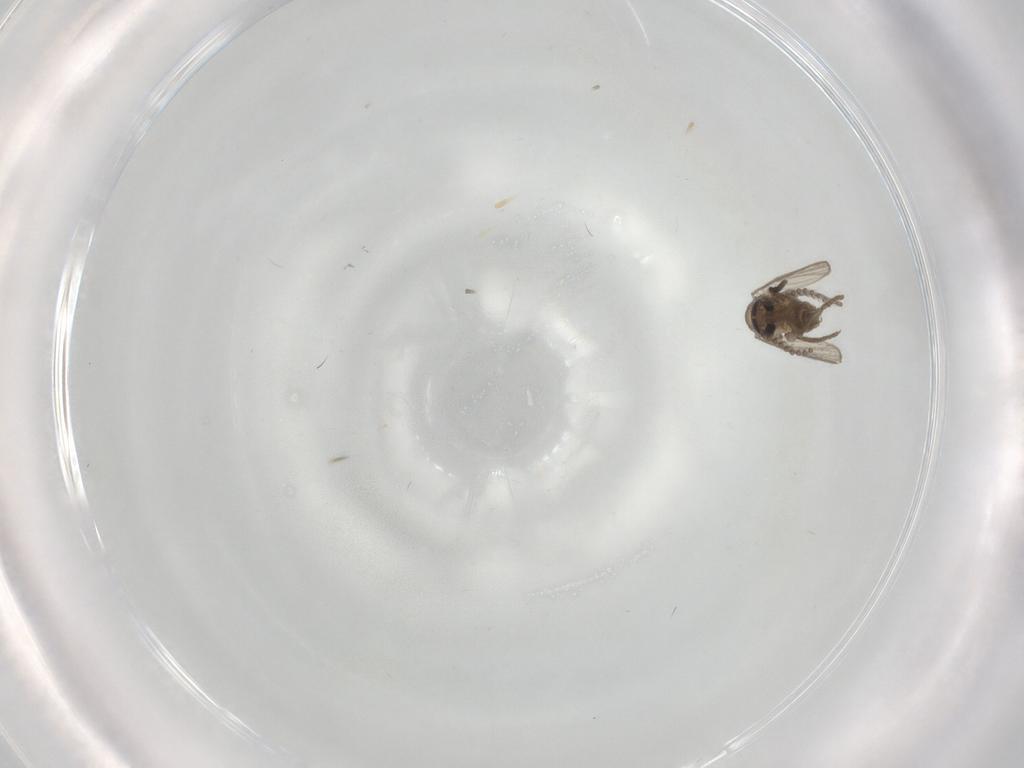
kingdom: Animalia
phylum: Arthropoda
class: Insecta
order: Diptera
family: Psychodidae
